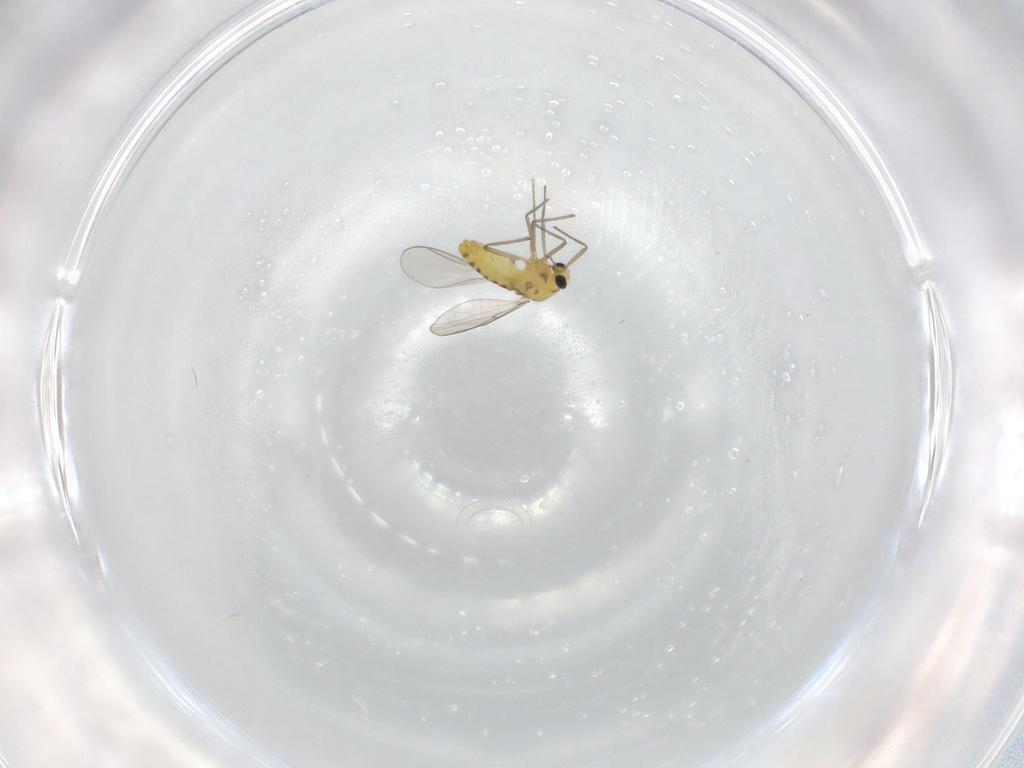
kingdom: Animalia
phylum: Arthropoda
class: Insecta
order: Diptera
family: Chironomidae
